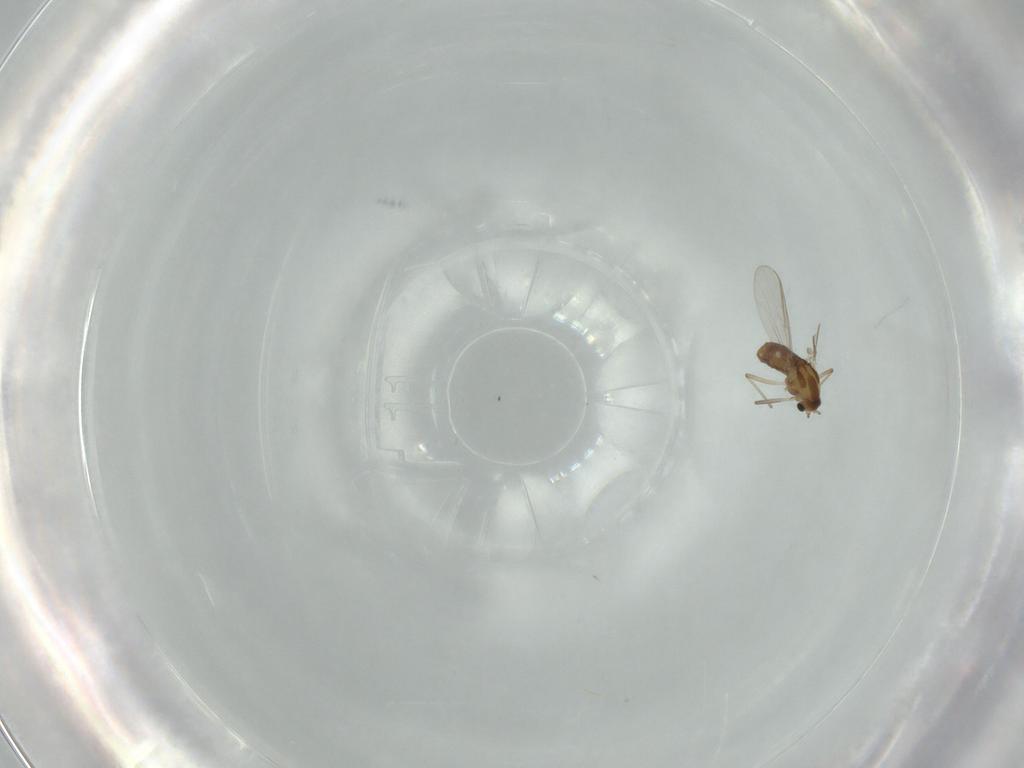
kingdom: Animalia
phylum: Arthropoda
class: Insecta
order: Diptera
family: Chironomidae
